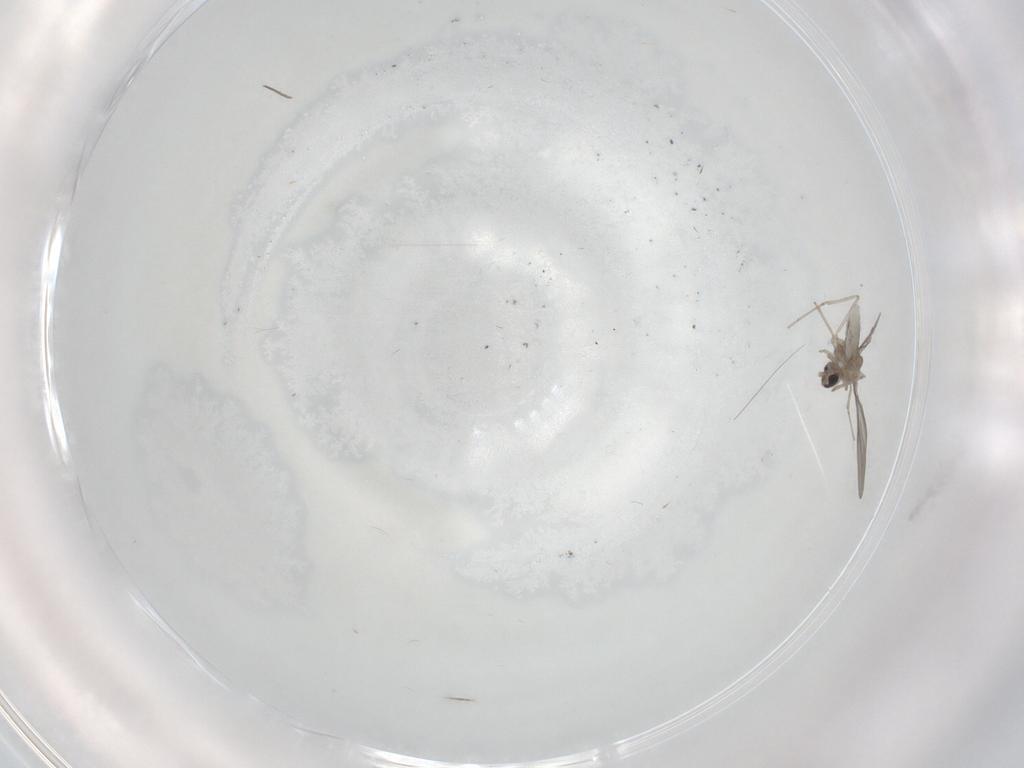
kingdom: Animalia
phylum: Arthropoda
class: Insecta
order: Diptera
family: Cecidomyiidae
